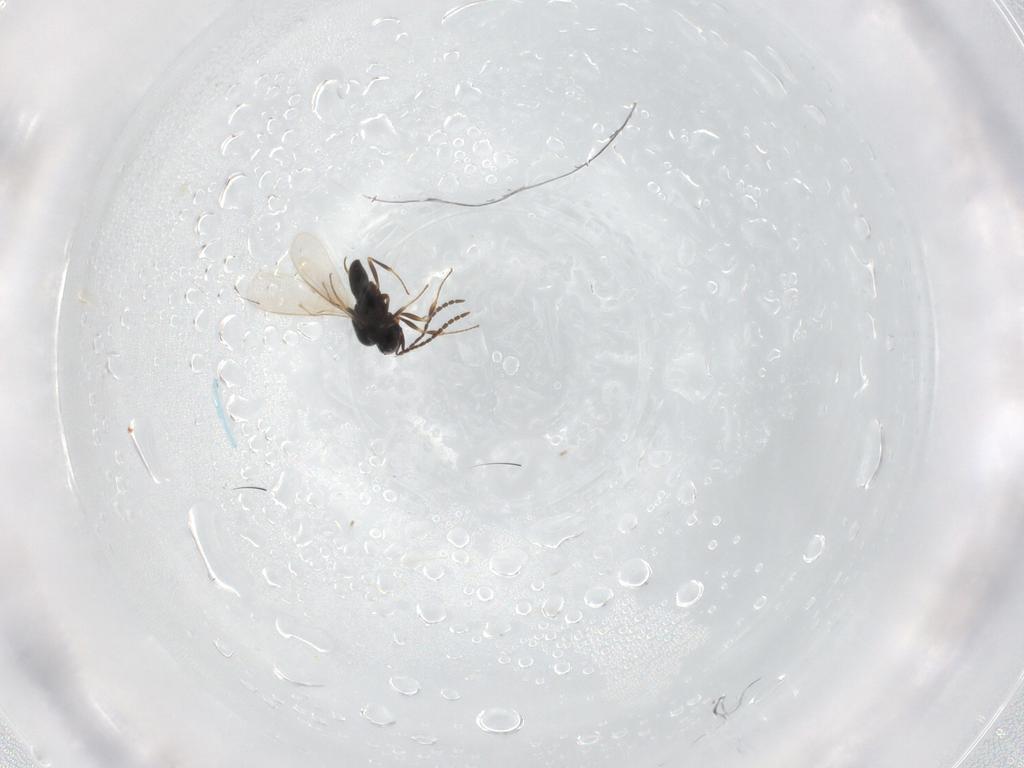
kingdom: Animalia
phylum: Arthropoda
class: Insecta
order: Hymenoptera
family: Scelionidae
